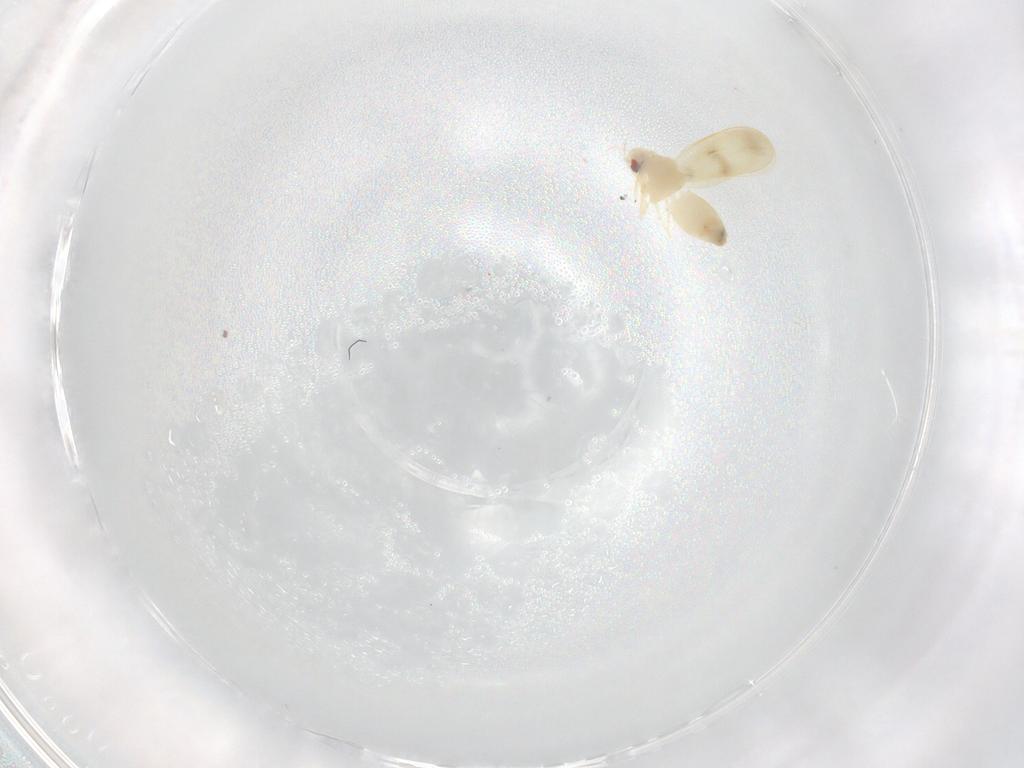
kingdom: Animalia
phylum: Arthropoda
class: Insecta
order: Hemiptera
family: Aleyrodidae
